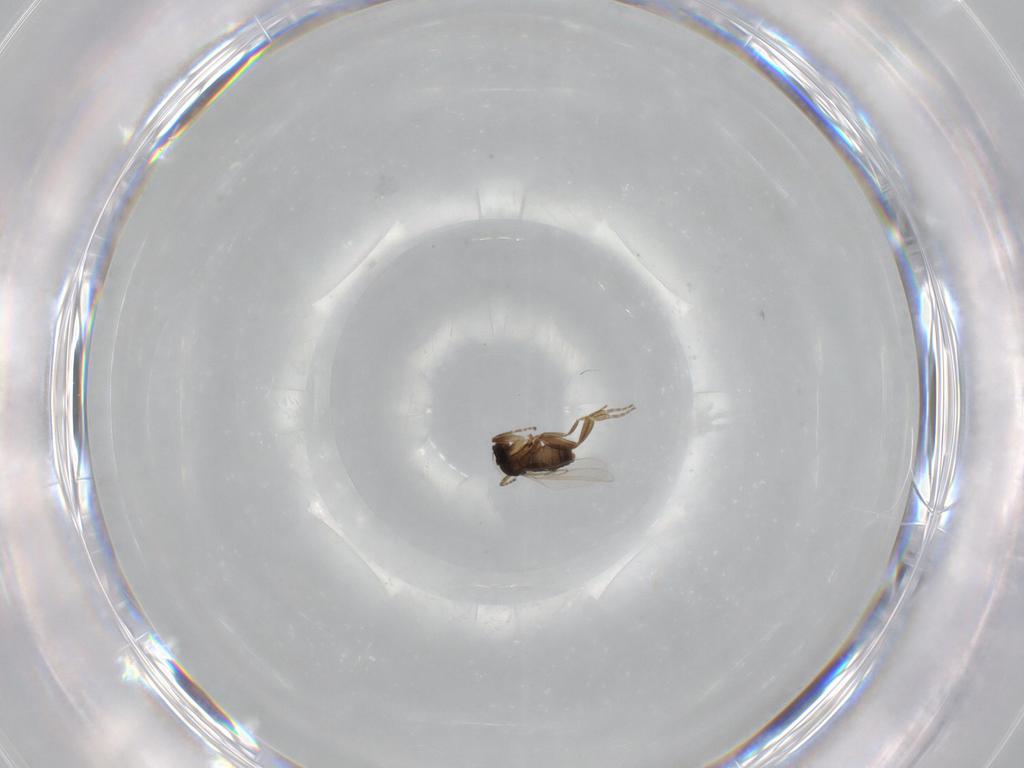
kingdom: Animalia
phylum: Arthropoda
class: Insecta
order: Diptera
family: Phoridae
